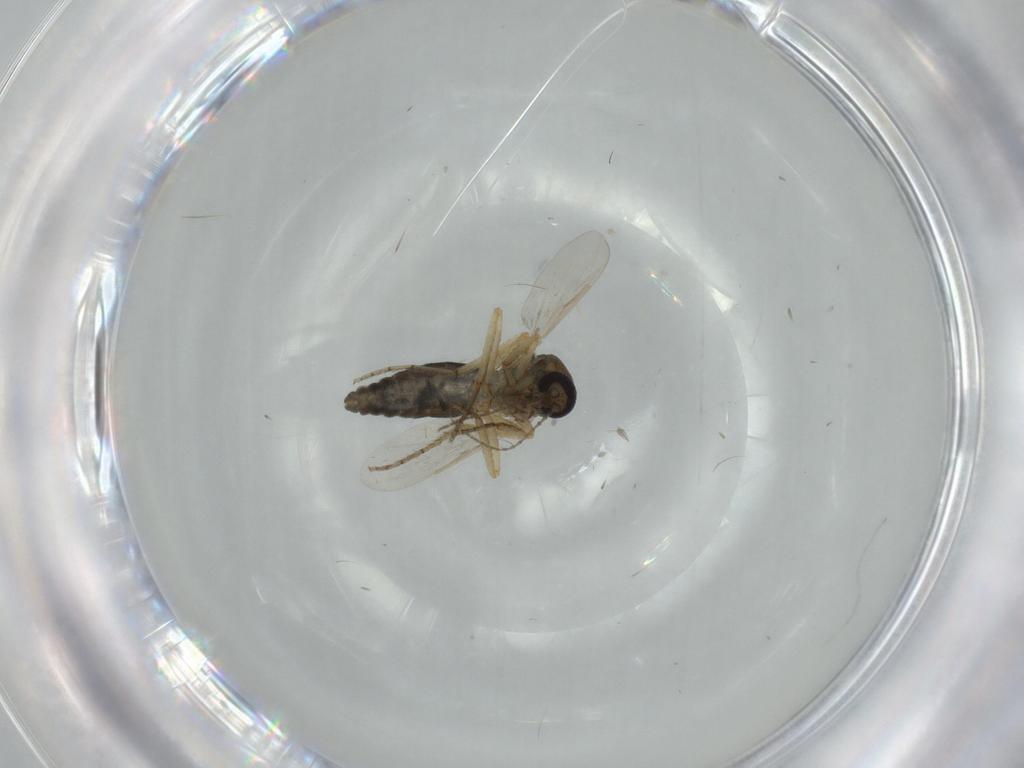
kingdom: Animalia
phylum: Arthropoda
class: Insecta
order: Diptera
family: Ceratopogonidae
